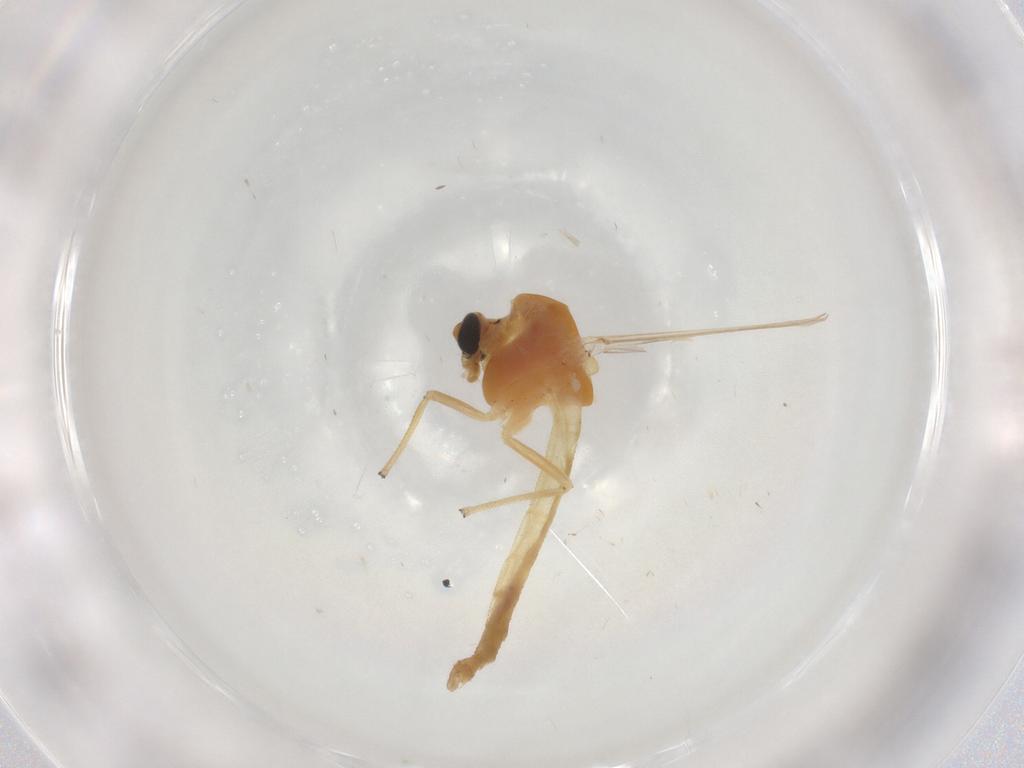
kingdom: Animalia
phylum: Arthropoda
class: Insecta
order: Diptera
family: Chironomidae
